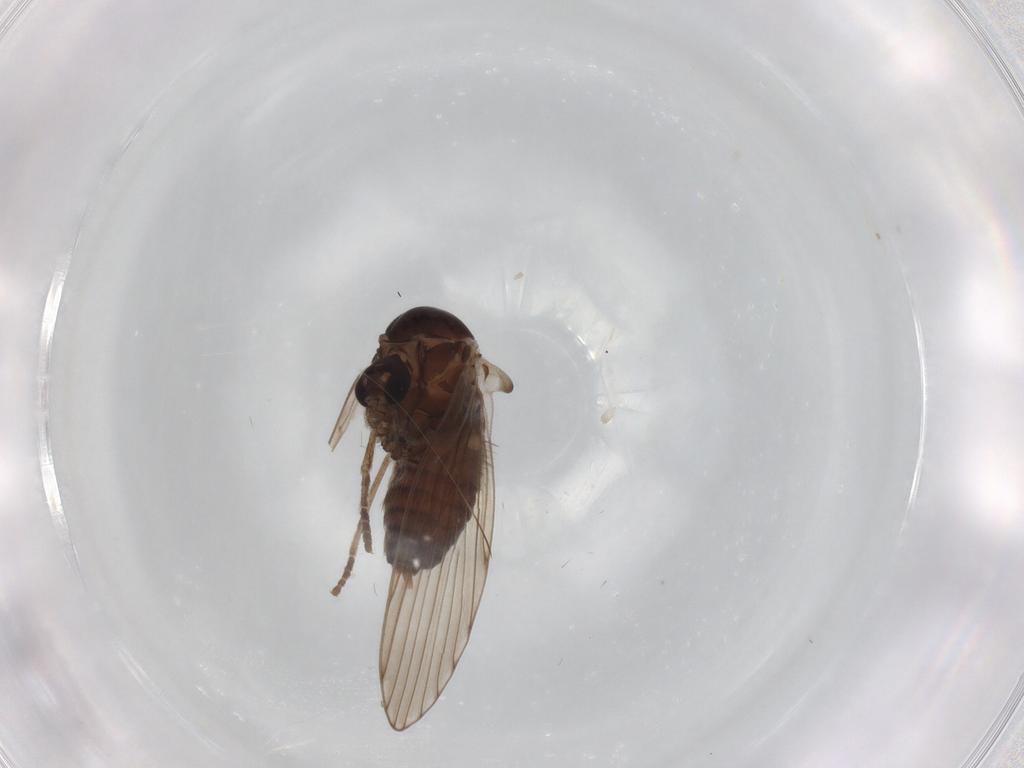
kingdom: Animalia
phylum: Arthropoda
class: Insecta
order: Diptera
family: Psychodidae
